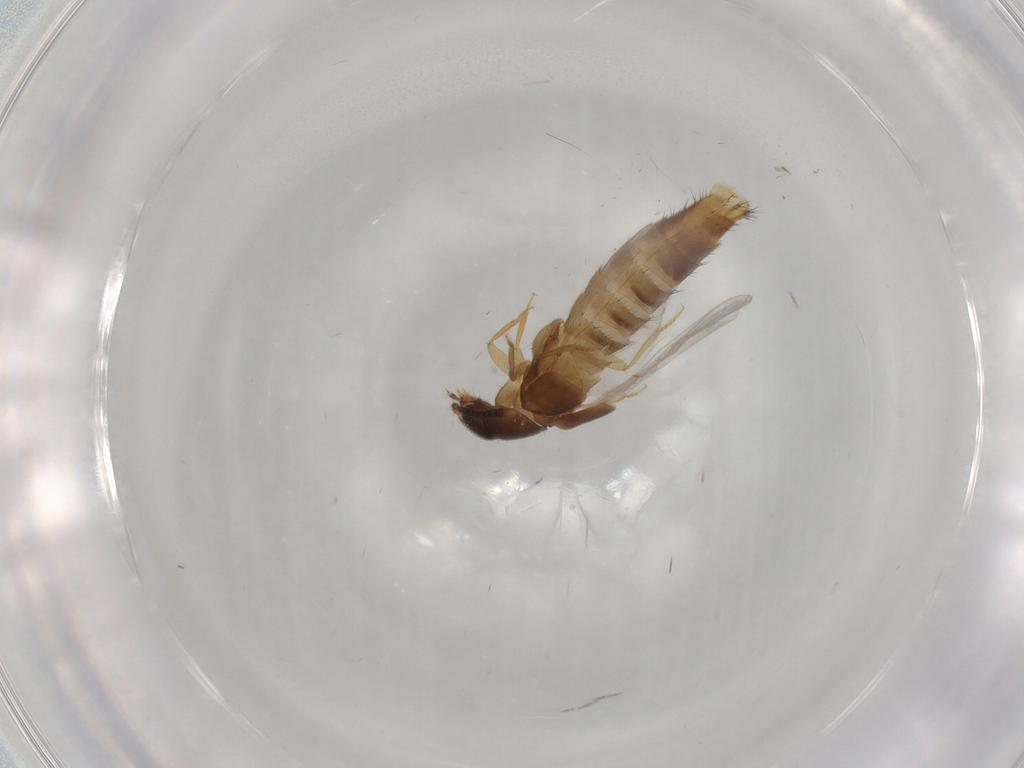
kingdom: Animalia
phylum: Arthropoda
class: Insecta
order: Coleoptera
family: Staphylinidae
